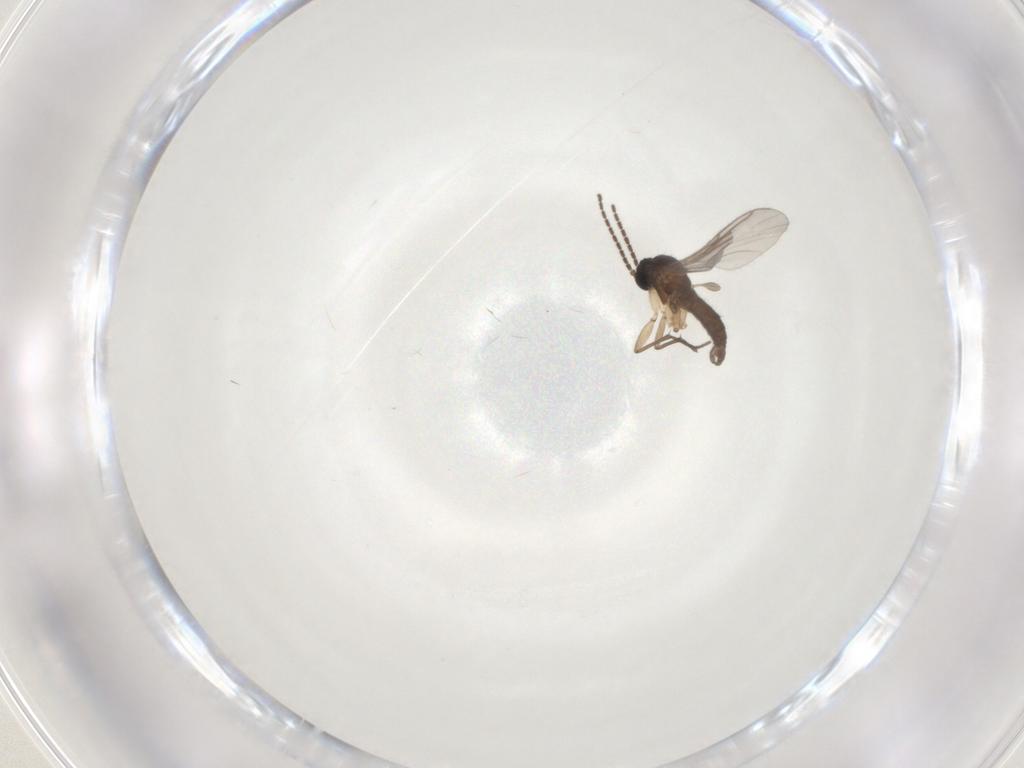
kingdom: Animalia
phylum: Arthropoda
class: Insecta
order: Diptera
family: Sciaridae
